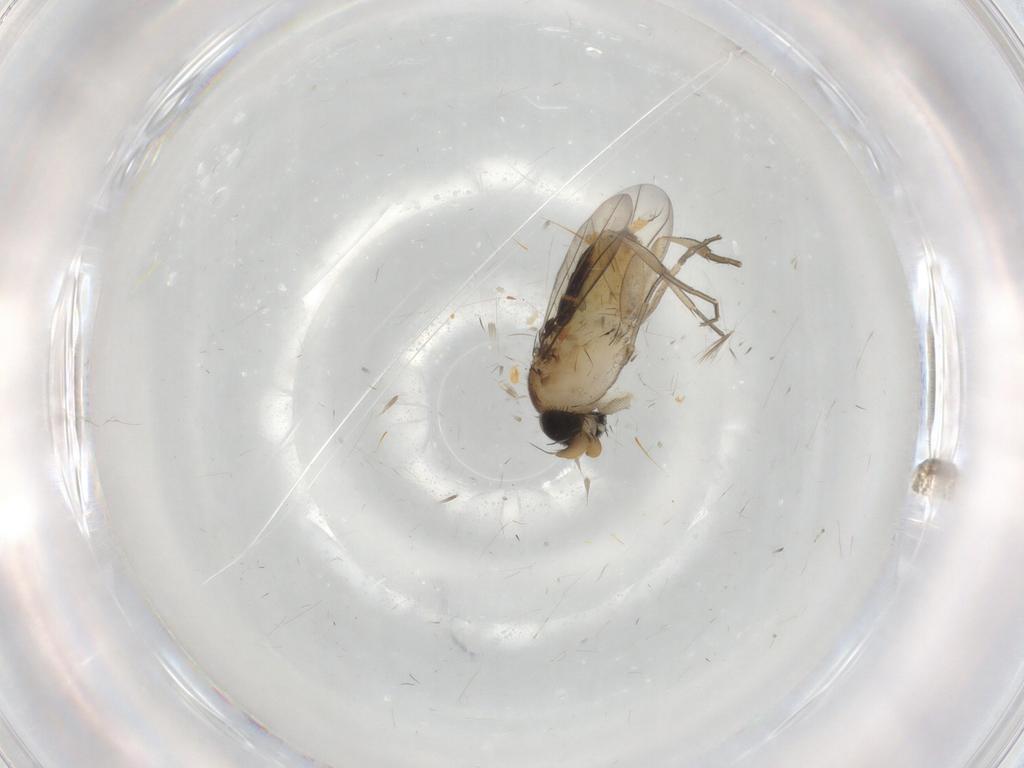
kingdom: Animalia
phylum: Arthropoda
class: Insecta
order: Diptera
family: Phoridae
